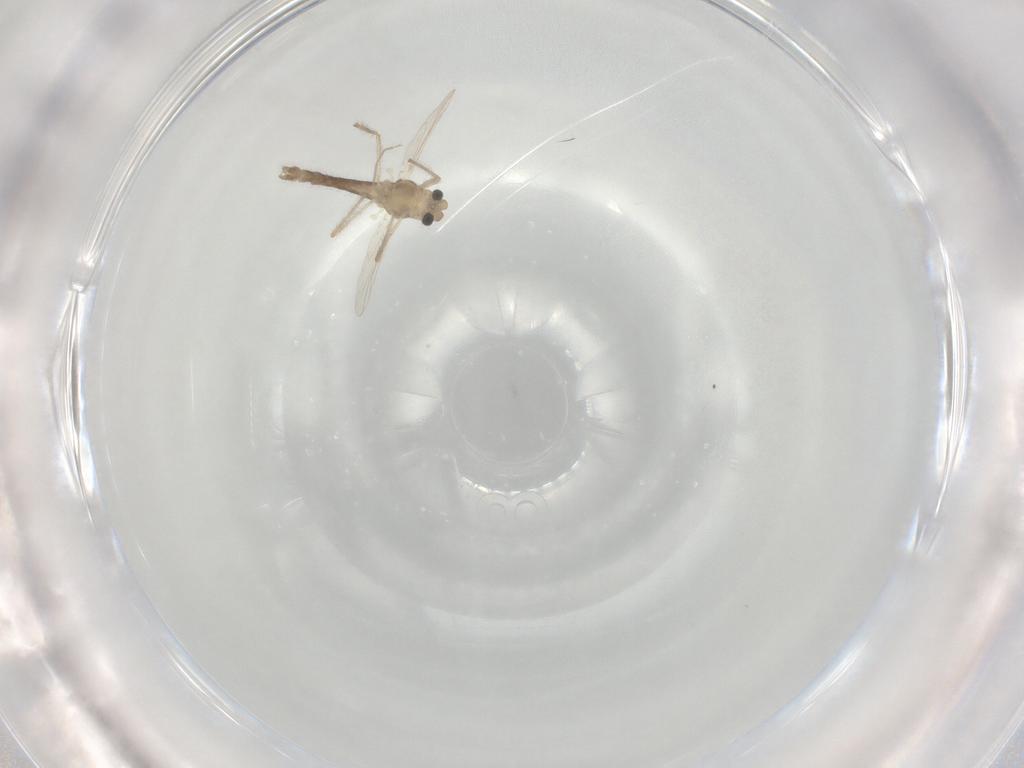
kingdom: Animalia
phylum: Arthropoda
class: Insecta
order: Diptera
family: Chironomidae
